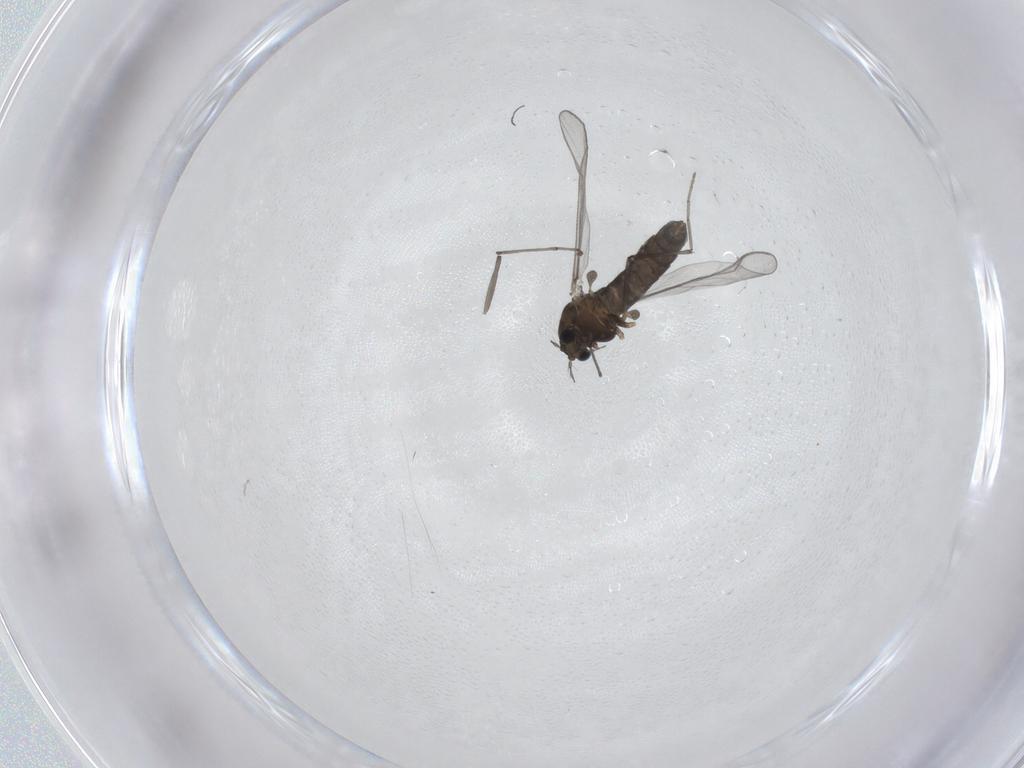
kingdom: Animalia
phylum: Arthropoda
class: Insecta
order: Diptera
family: Chironomidae
